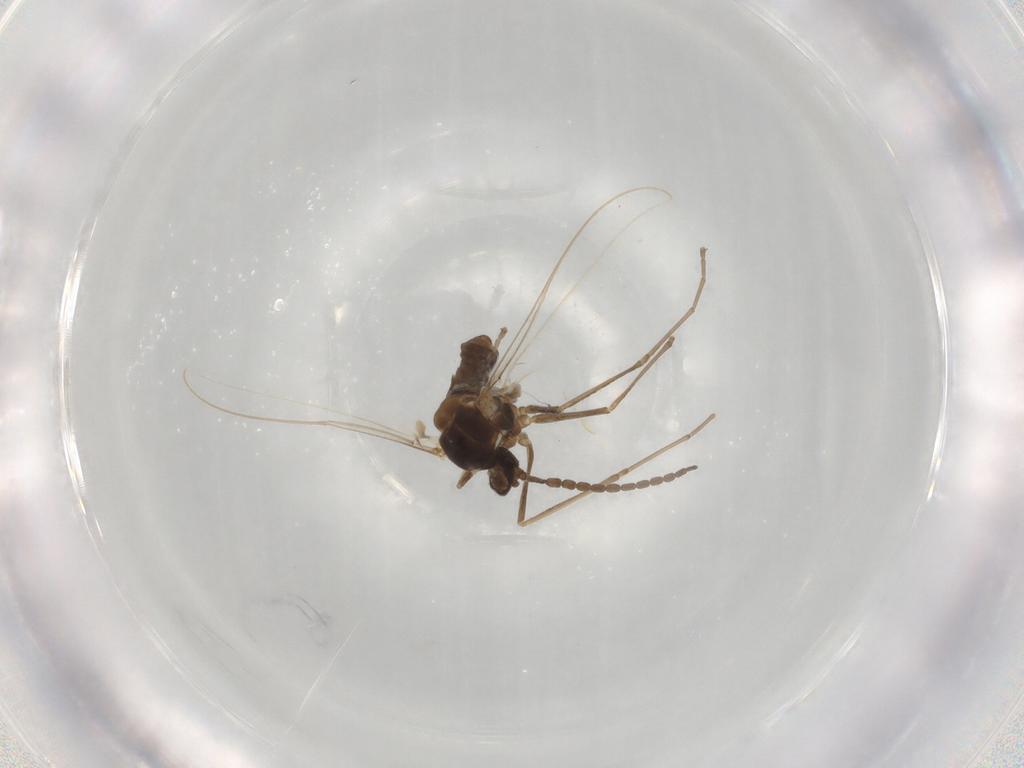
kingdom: Animalia
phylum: Arthropoda
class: Insecta
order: Diptera
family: Cecidomyiidae
